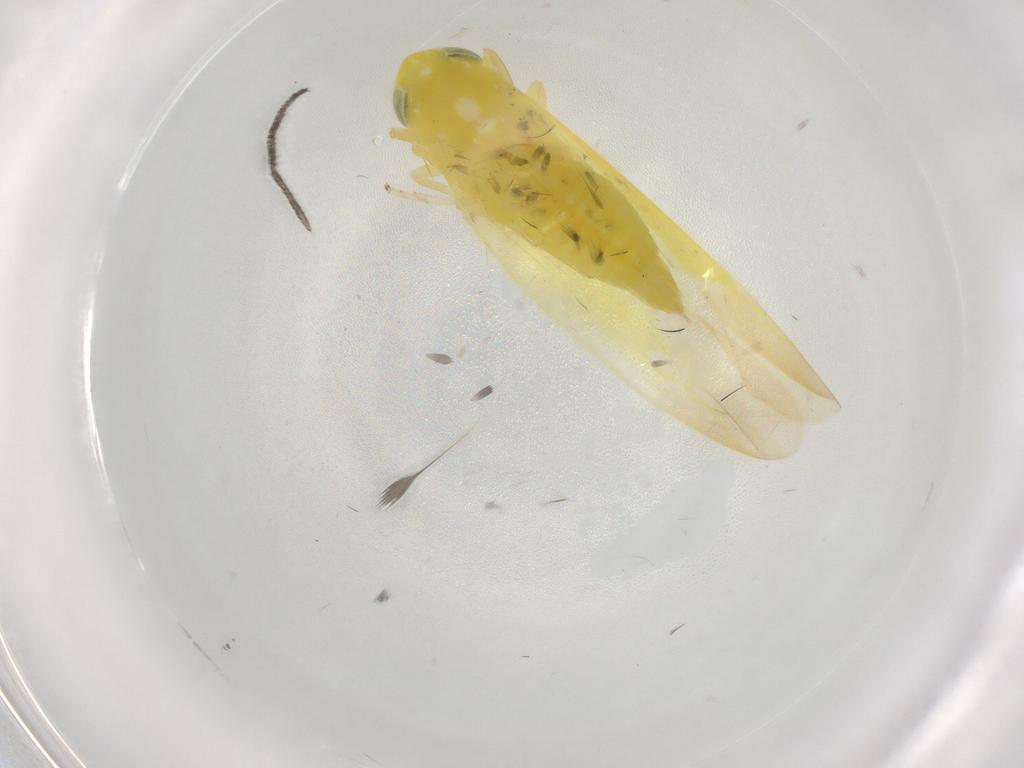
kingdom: Animalia
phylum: Arthropoda
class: Insecta
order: Hemiptera
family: Cicadellidae
